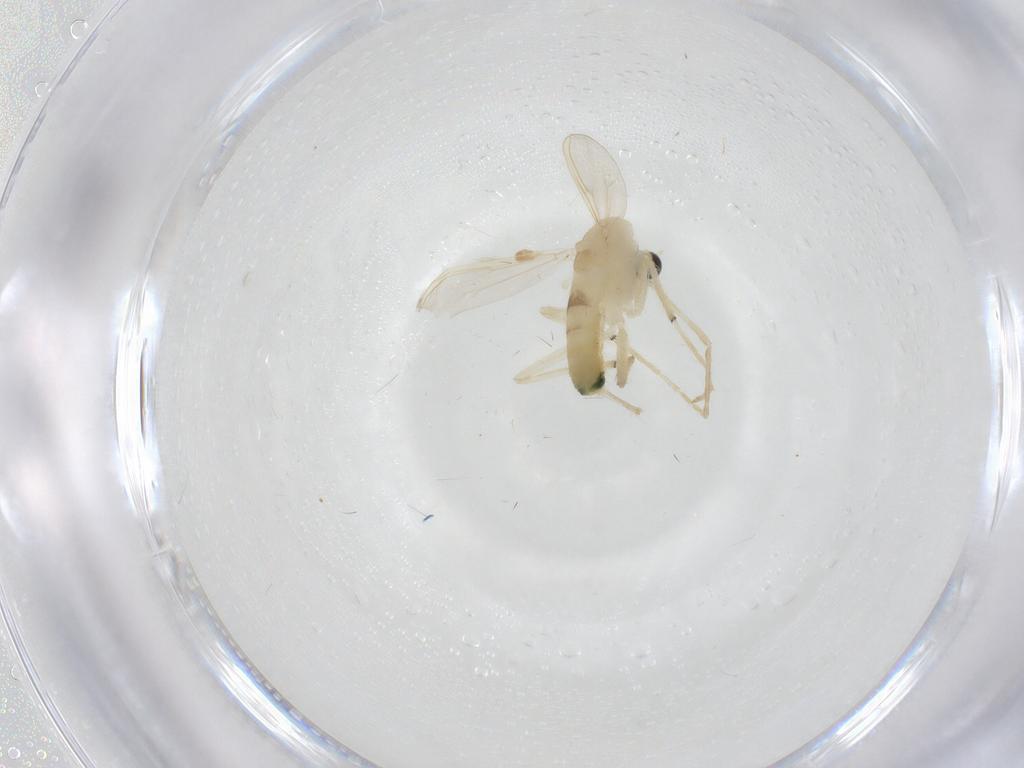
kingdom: Animalia
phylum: Arthropoda
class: Insecta
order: Diptera
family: Chironomidae
